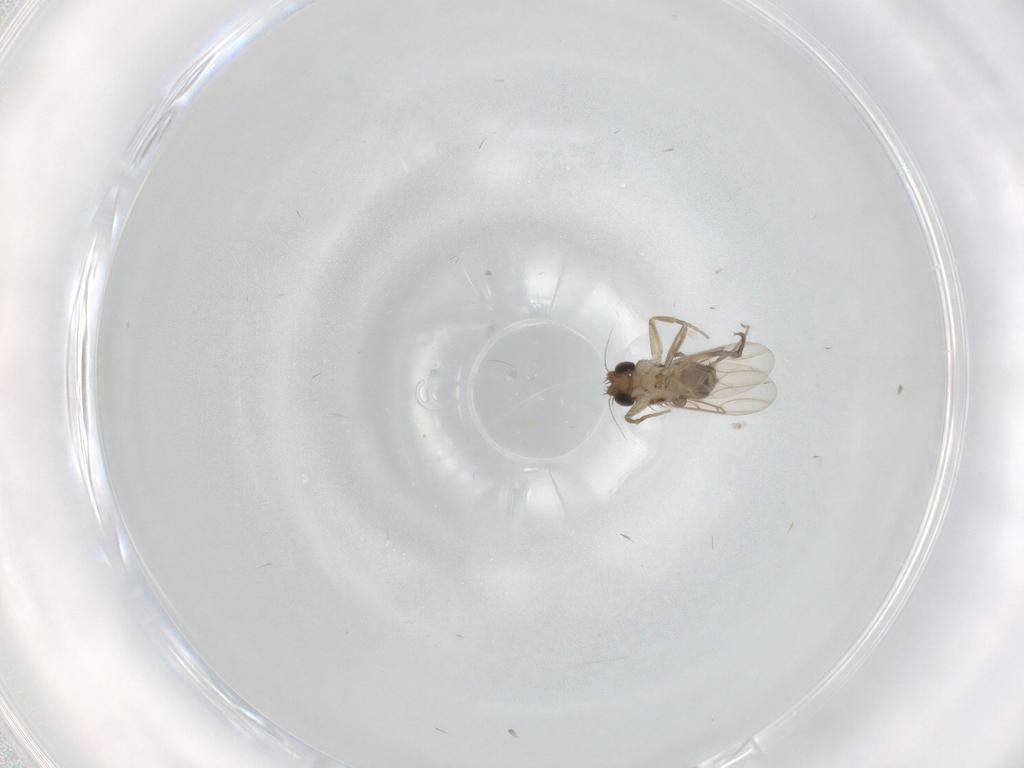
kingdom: Animalia
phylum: Arthropoda
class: Insecta
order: Diptera
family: Phoridae
